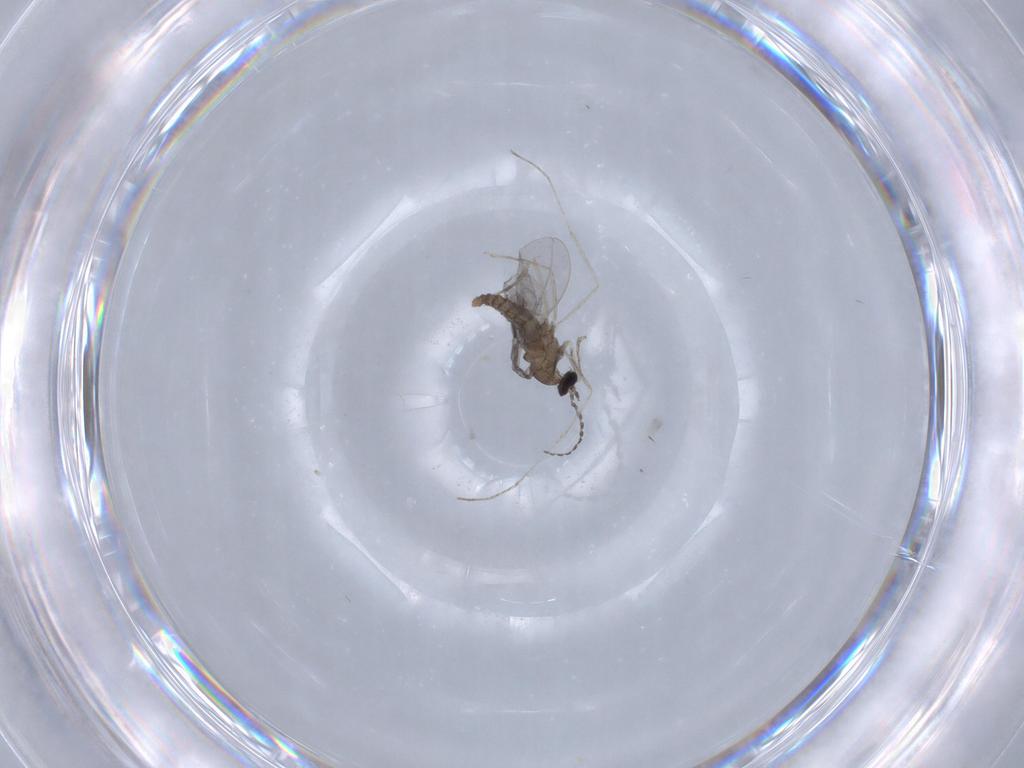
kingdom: Animalia
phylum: Arthropoda
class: Insecta
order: Diptera
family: Cecidomyiidae
